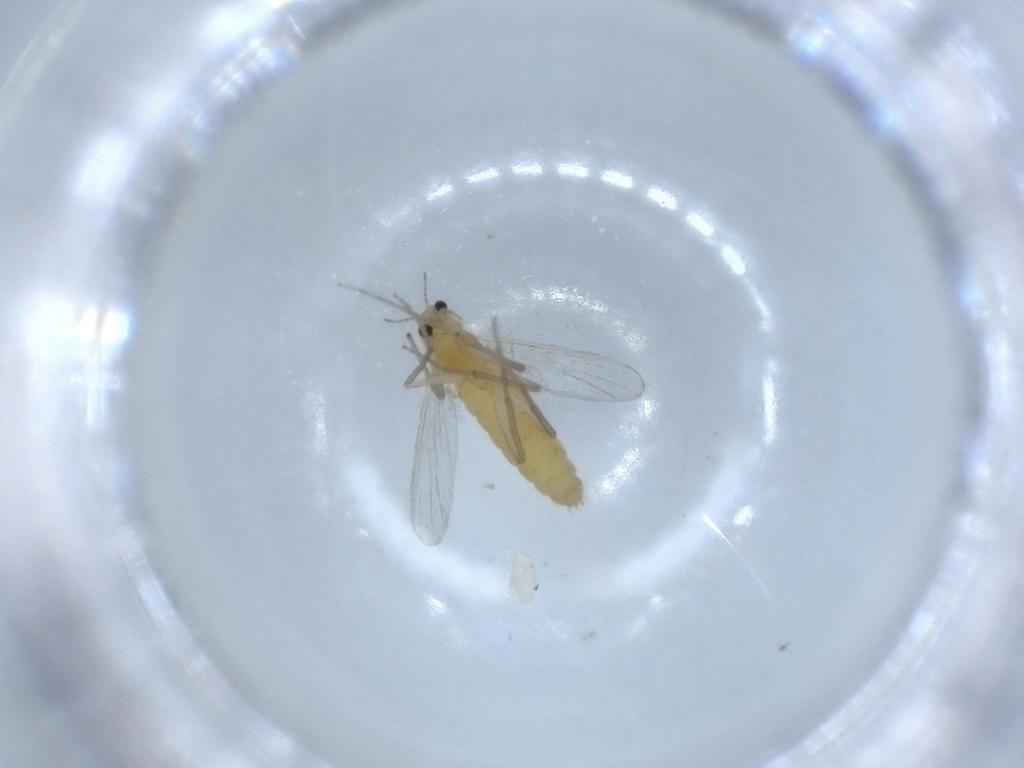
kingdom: Animalia
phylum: Arthropoda
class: Insecta
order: Diptera
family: Chironomidae
